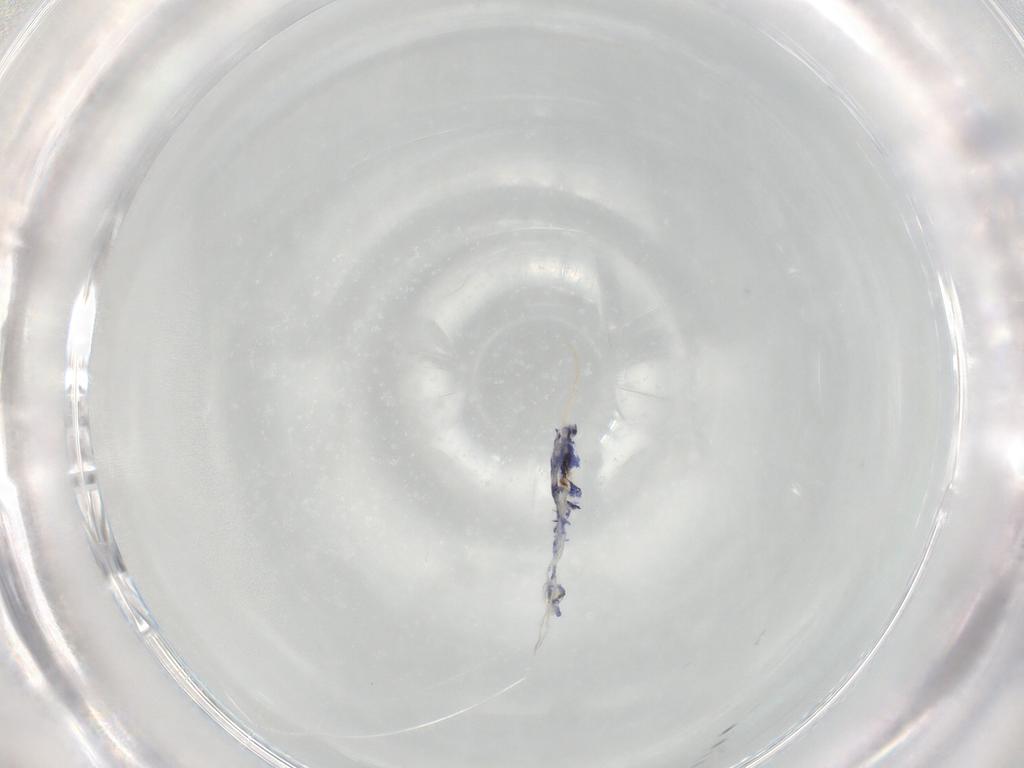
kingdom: Animalia
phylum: Arthropoda
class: Collembola
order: Entomobryomorpha
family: Entomobryidae
